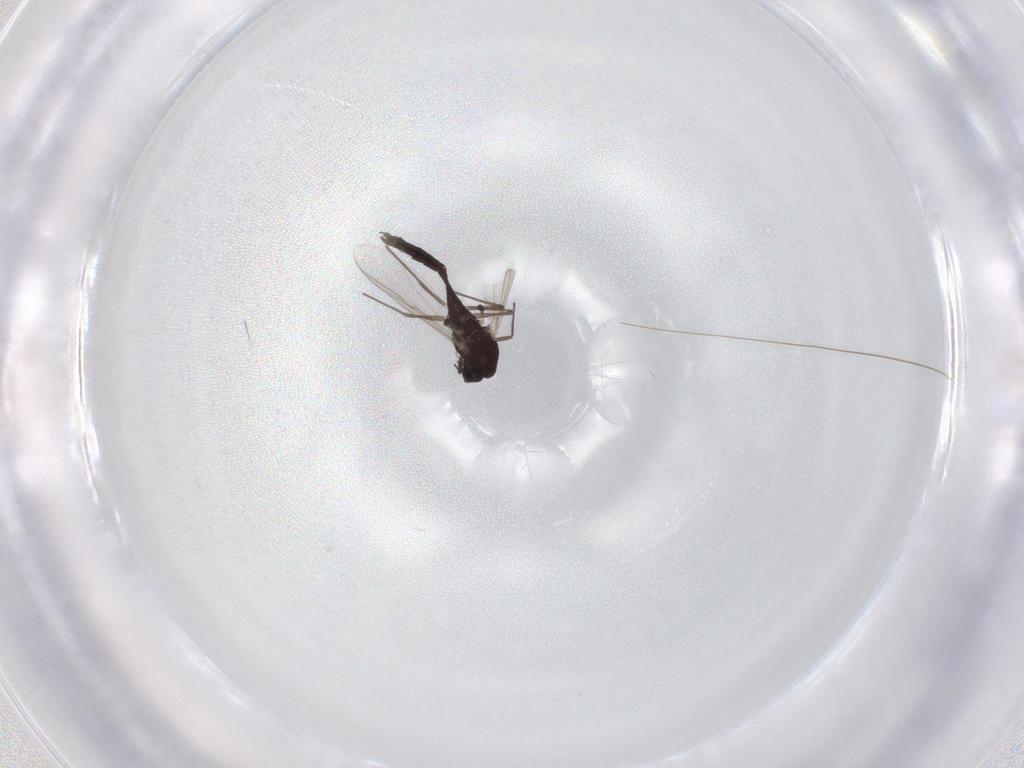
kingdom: Animalia
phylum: Arthropoda
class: Insecta
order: Diptera
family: Chironomidae
